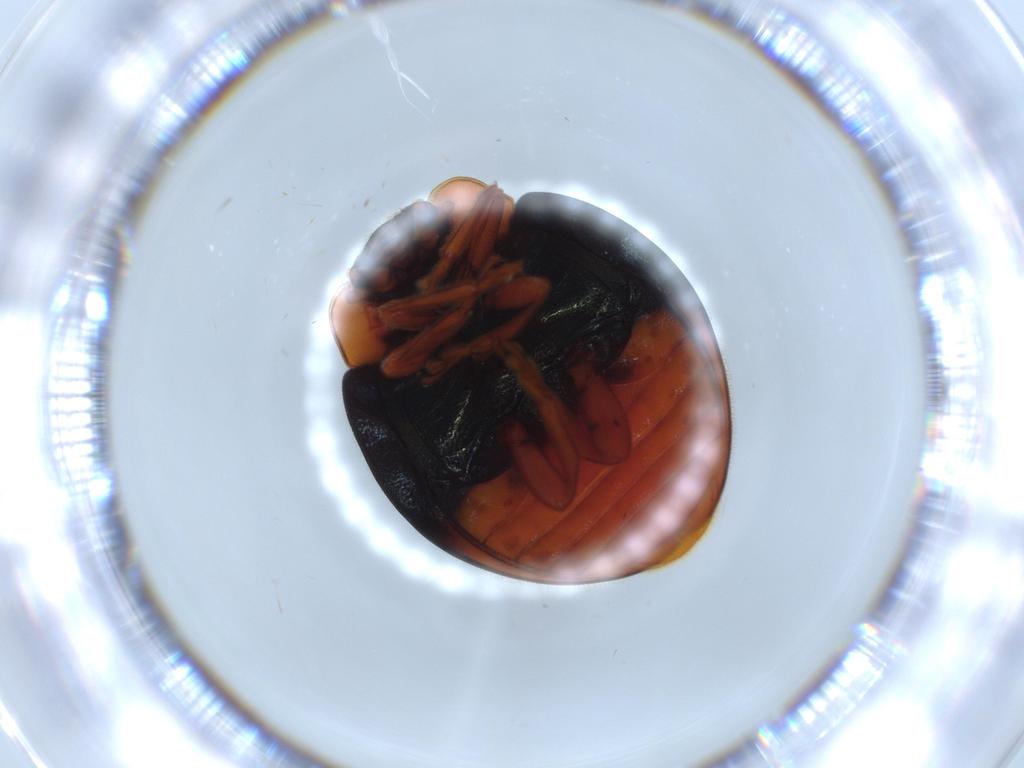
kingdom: Animalia
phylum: Arthropoda
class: Insecta
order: Coleoptera
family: Coccinellidae
